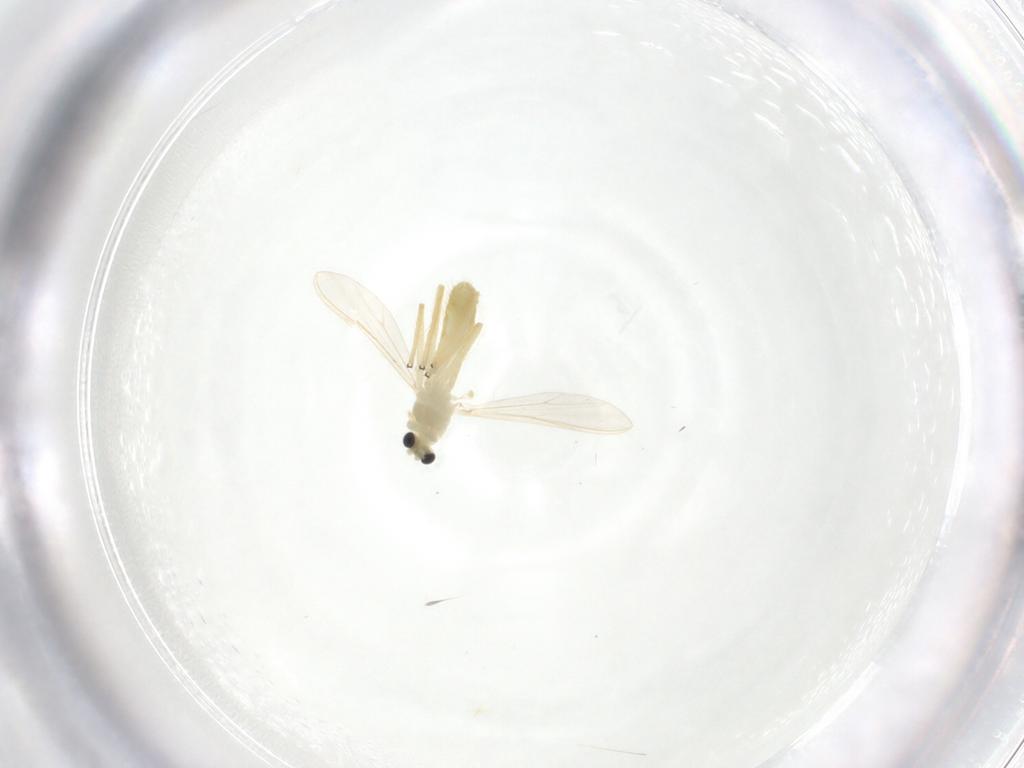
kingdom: Animalia
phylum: Arthropoda
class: Insecta
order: Diptera
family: Chironomidae
